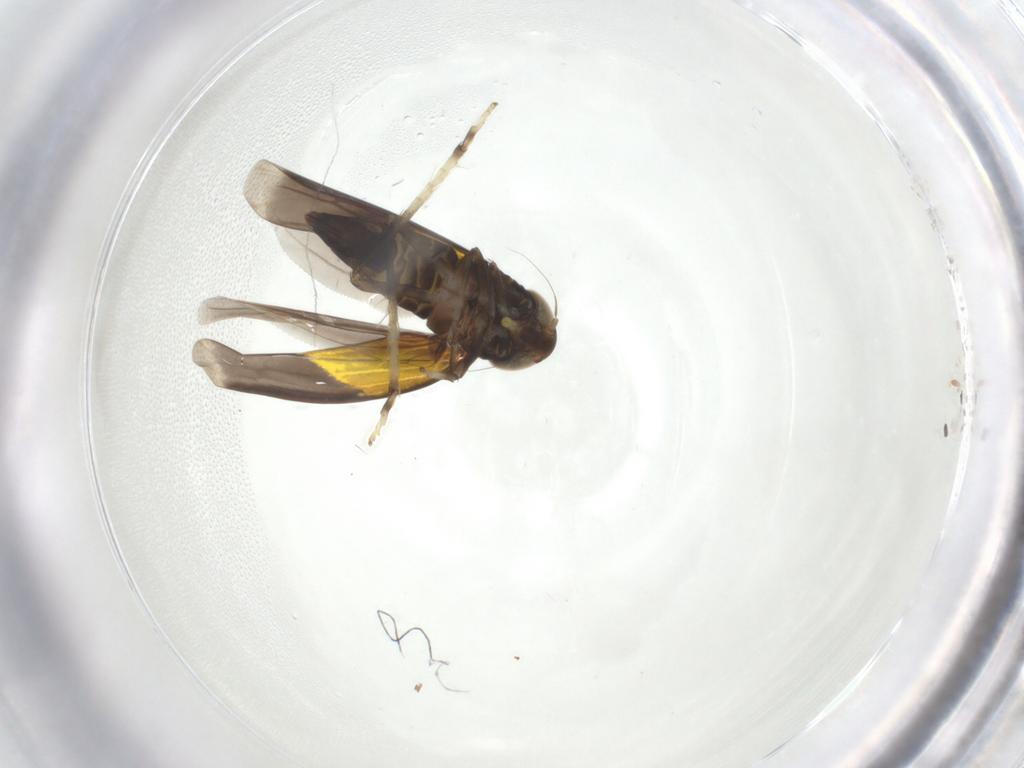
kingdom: Animalia
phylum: Arthropoda
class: Insecta
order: Hemiptera
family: Cicadellidae
